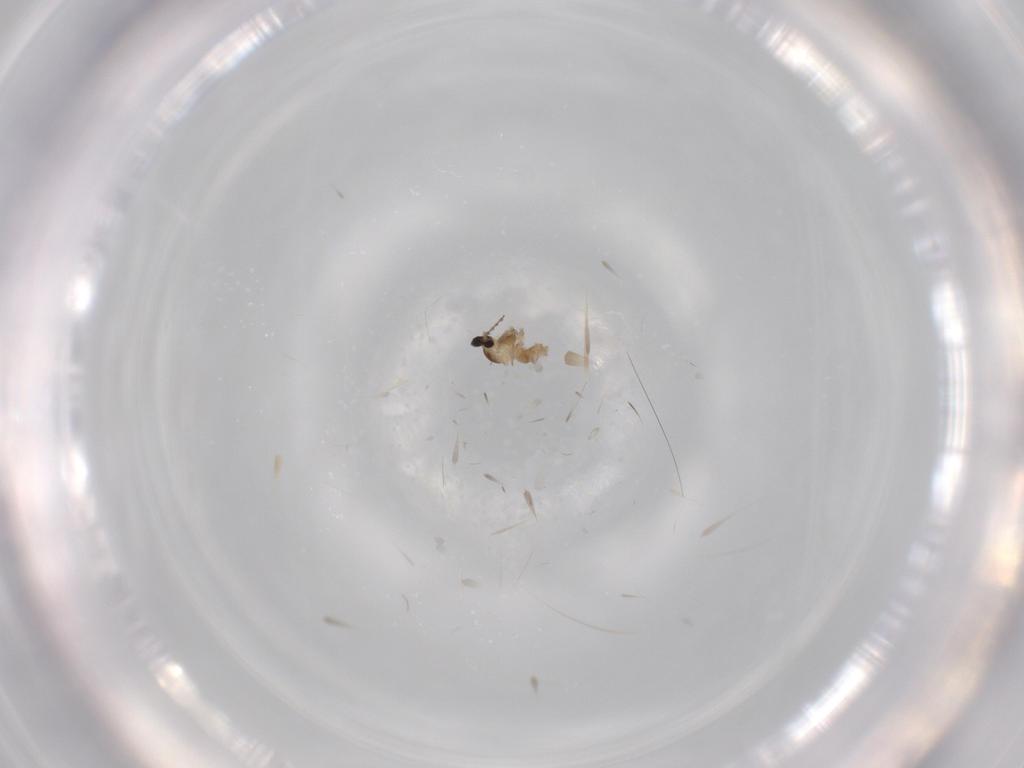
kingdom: Animalia
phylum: Arthropoda
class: Insecta
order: Diptera
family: Cecidomyiidae
